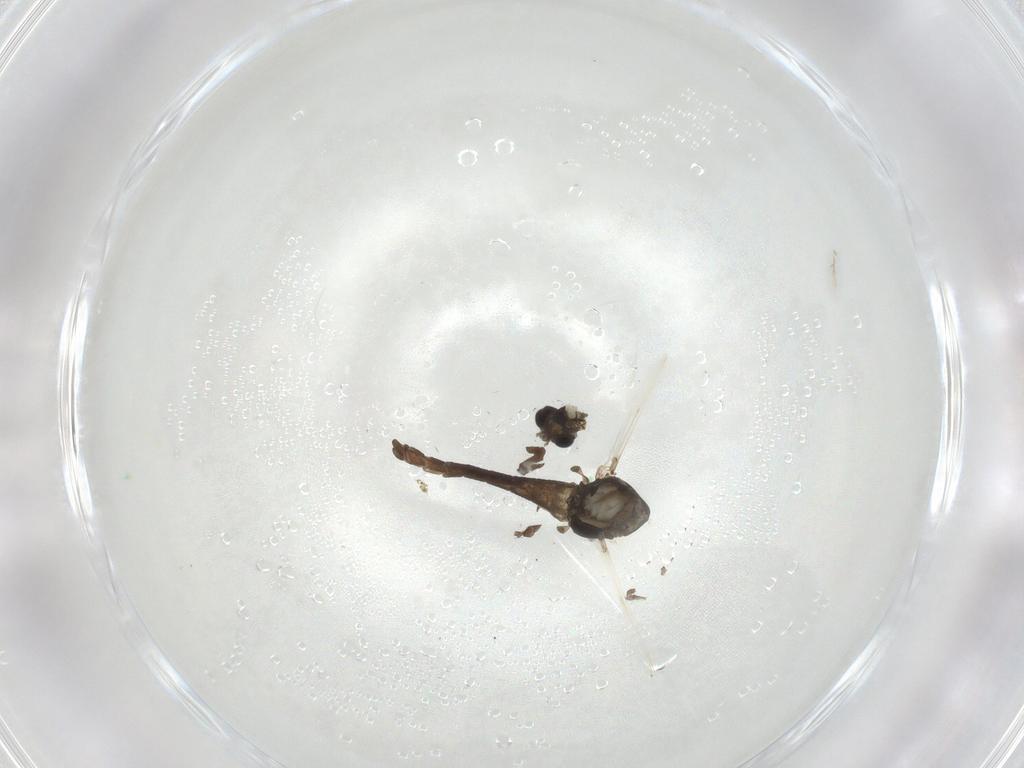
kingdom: Animalia
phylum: Arthropoda
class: Insecta
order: Diptera
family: Chironomidae
